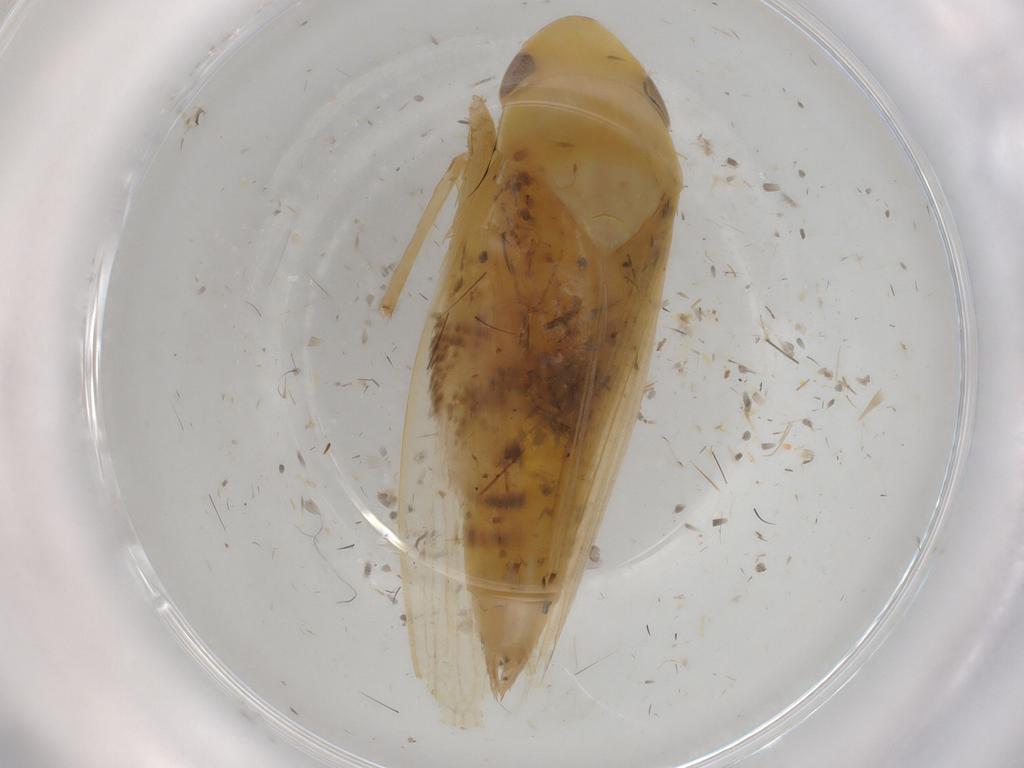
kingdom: Animalia
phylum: Arthropoda
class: Insecta
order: Hemiptera
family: Cicadellidae
